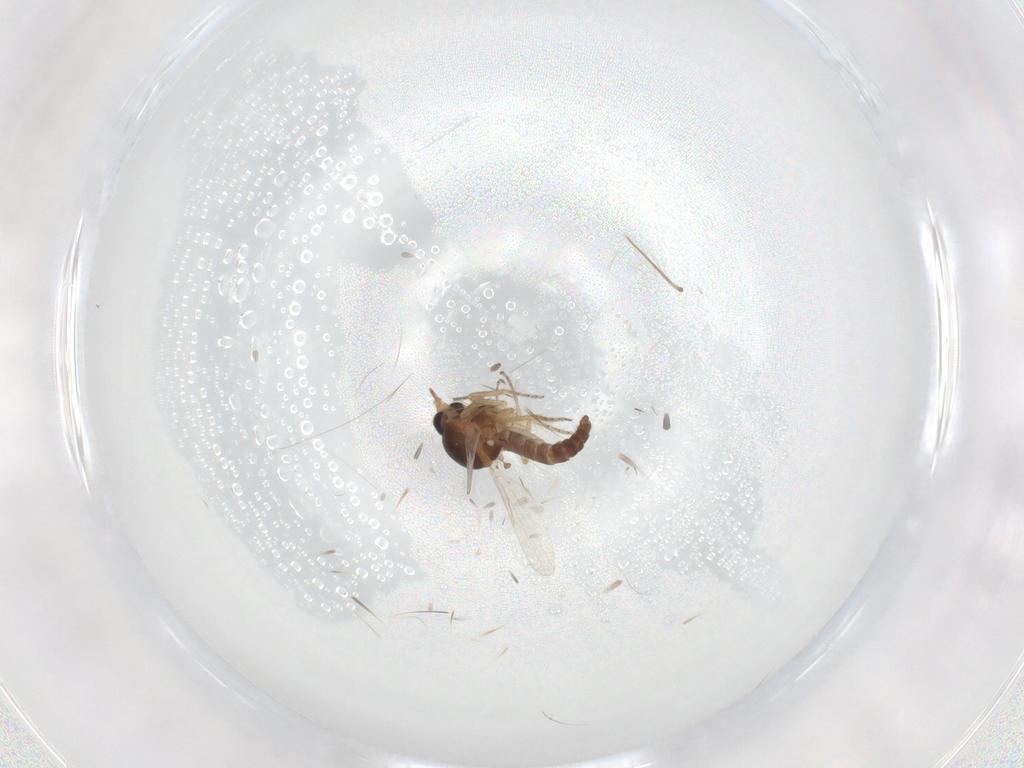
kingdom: Animalia
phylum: Arthropoda
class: Insecta
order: Diptera
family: Ceratopogonidae
